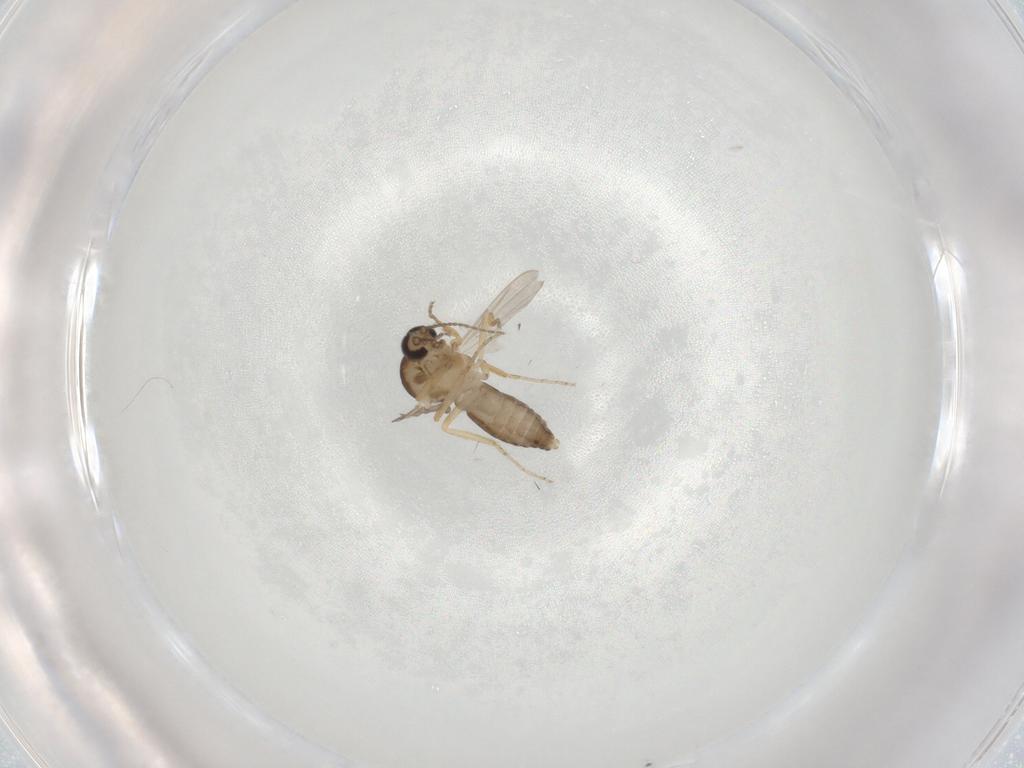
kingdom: Animalia
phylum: Arthropoda
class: Insecta
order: Diptera
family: Ceratopogonidae
